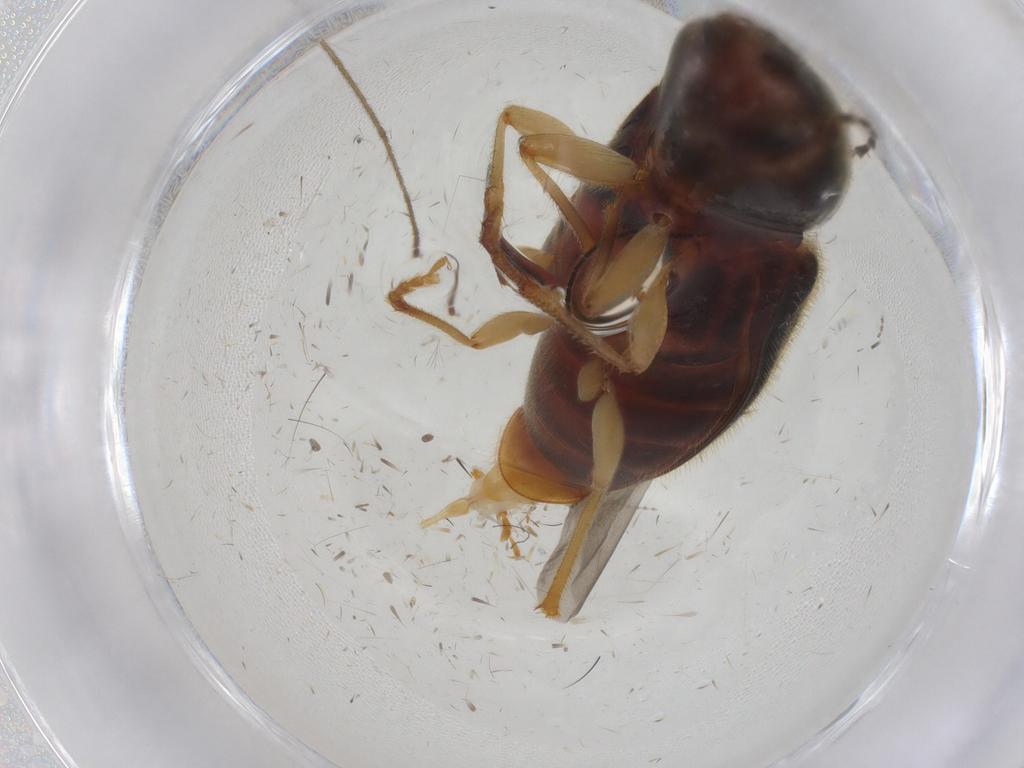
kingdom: Animalia
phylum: Arthropoda
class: Insecta
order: Coleoptera
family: Elateridae
